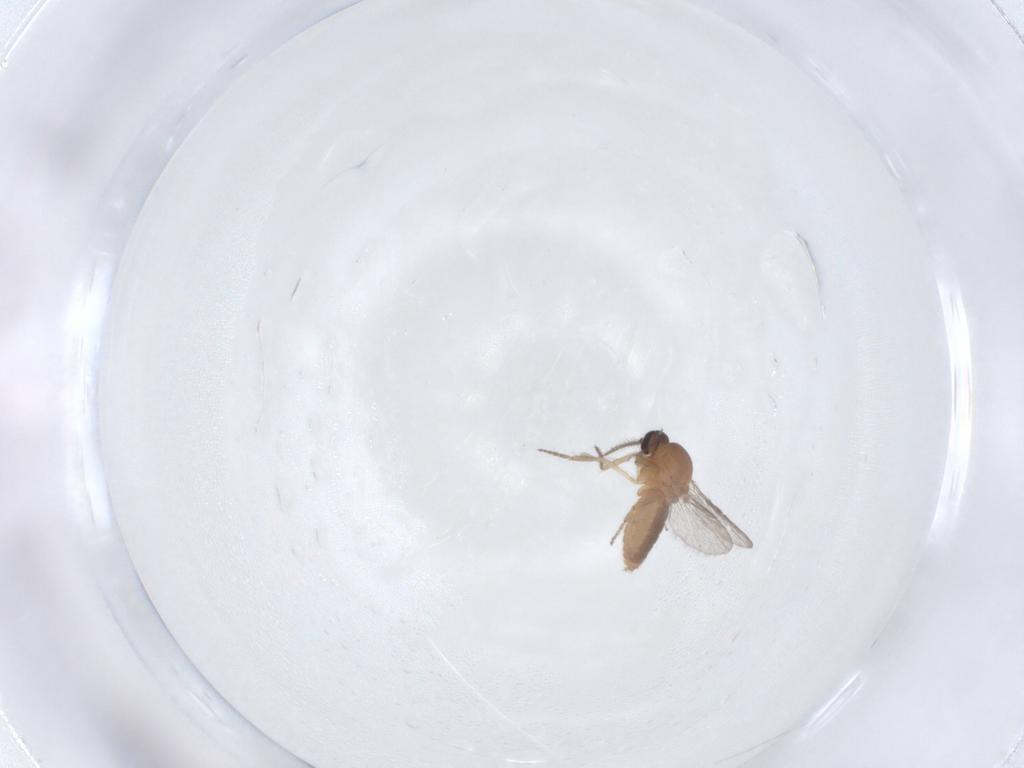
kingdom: Animalia
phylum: Arthropoda
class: Insecta
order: Diptera
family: Ceratopogonidae
